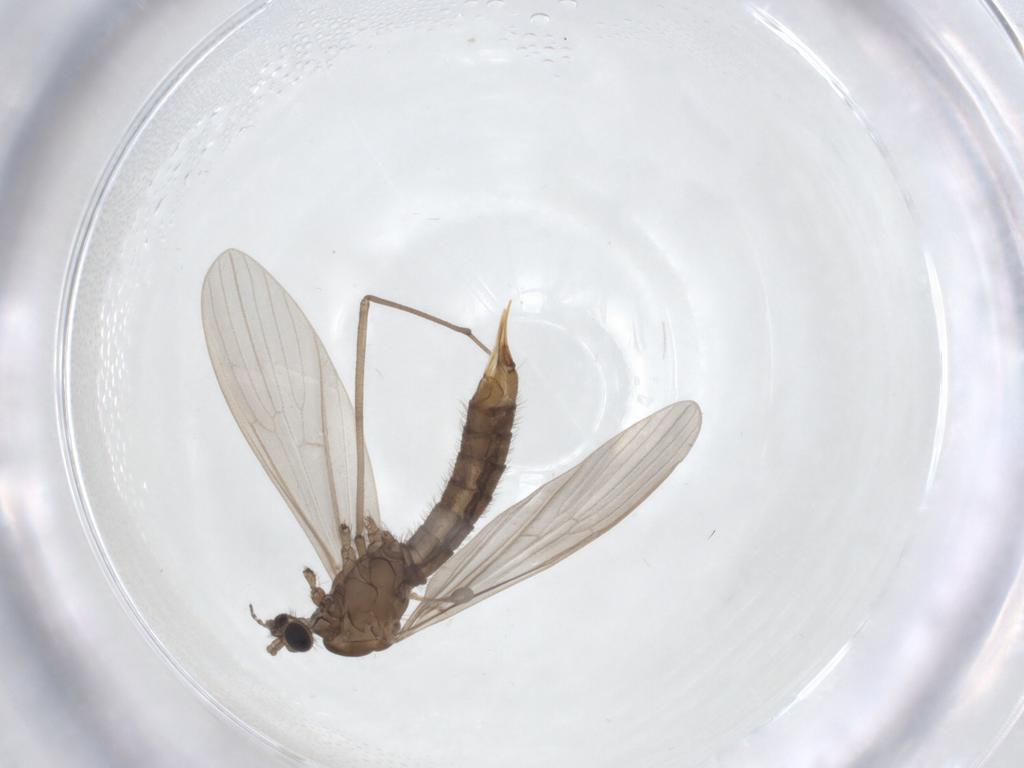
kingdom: Animalia
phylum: Arthropoda
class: Insecta
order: Diptera
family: Limoniidae
